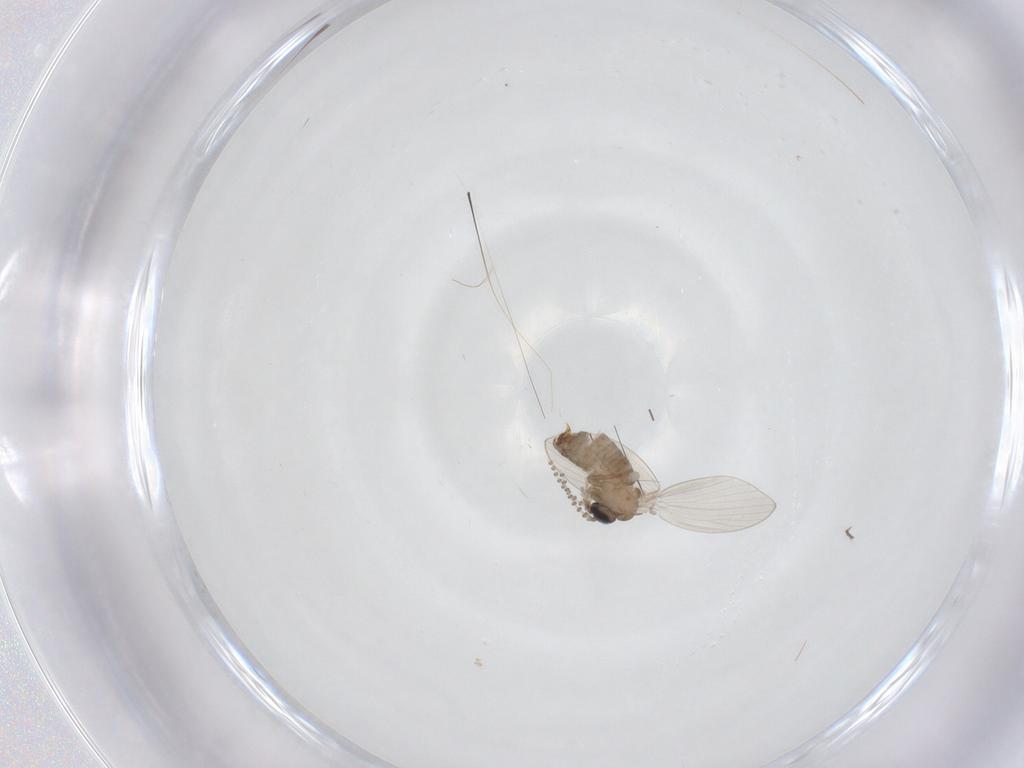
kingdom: Animalia
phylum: Arthropoda
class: Insecta
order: Diptera
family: Psychodidae
